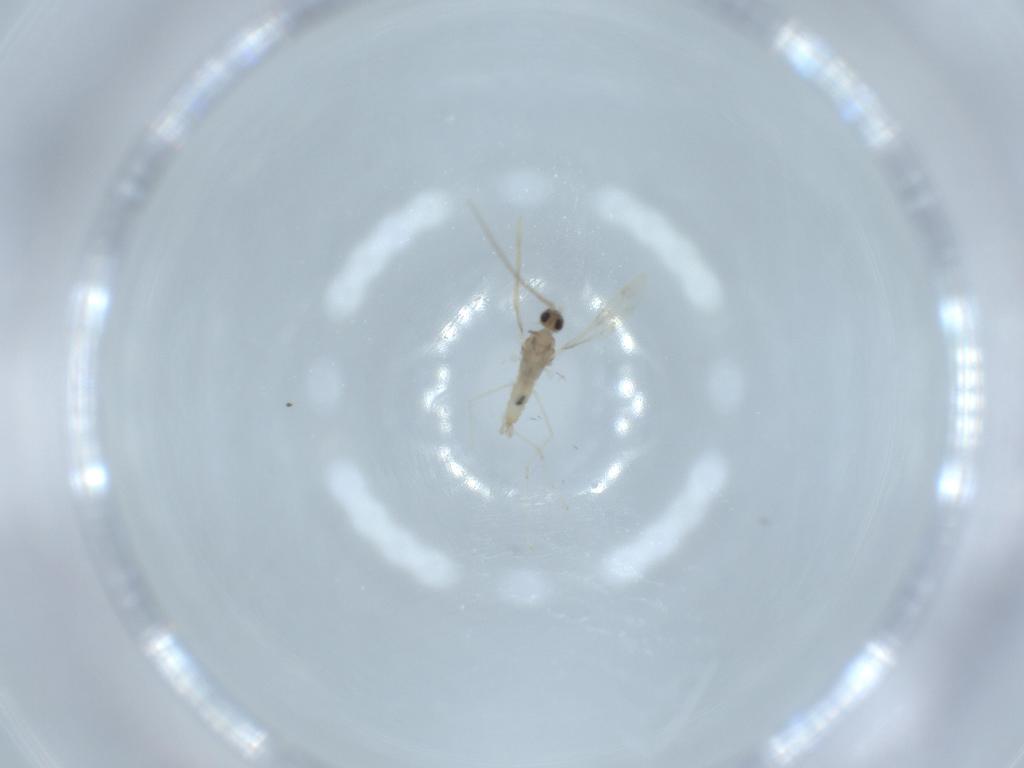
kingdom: Animalia
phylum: Arthropoda
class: Insecta
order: Diptera
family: Cecidomyiidae
